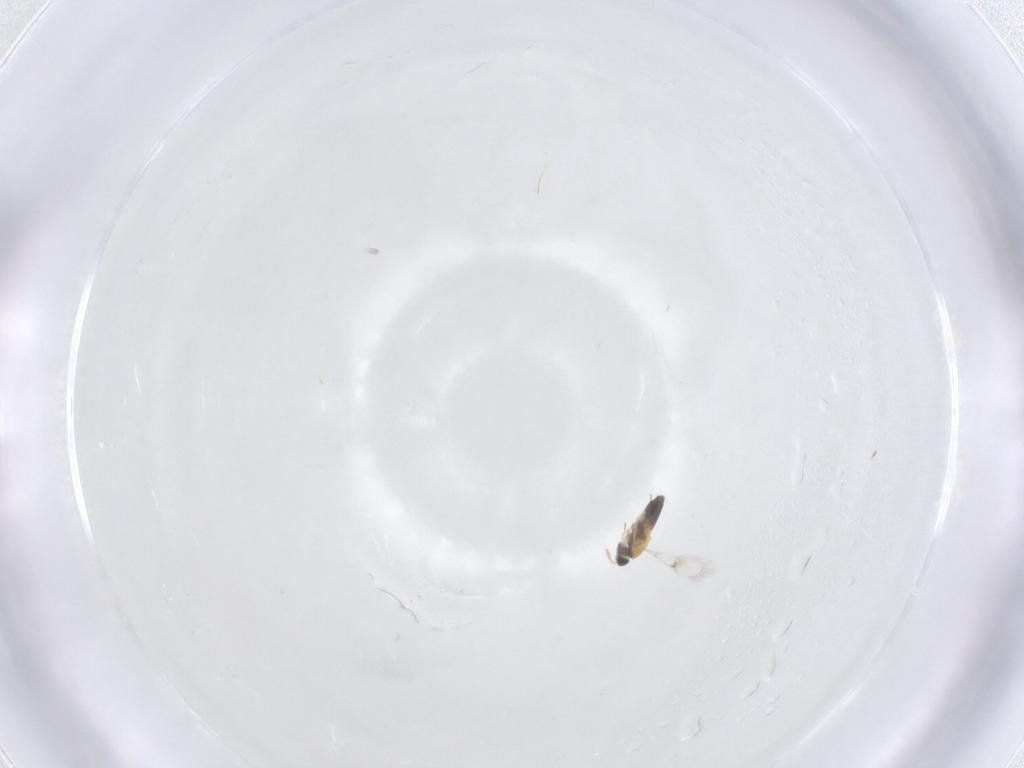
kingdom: Animalia
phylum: Arthropoda
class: Insecta
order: Hymenoptera
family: Trichogrammatidae
